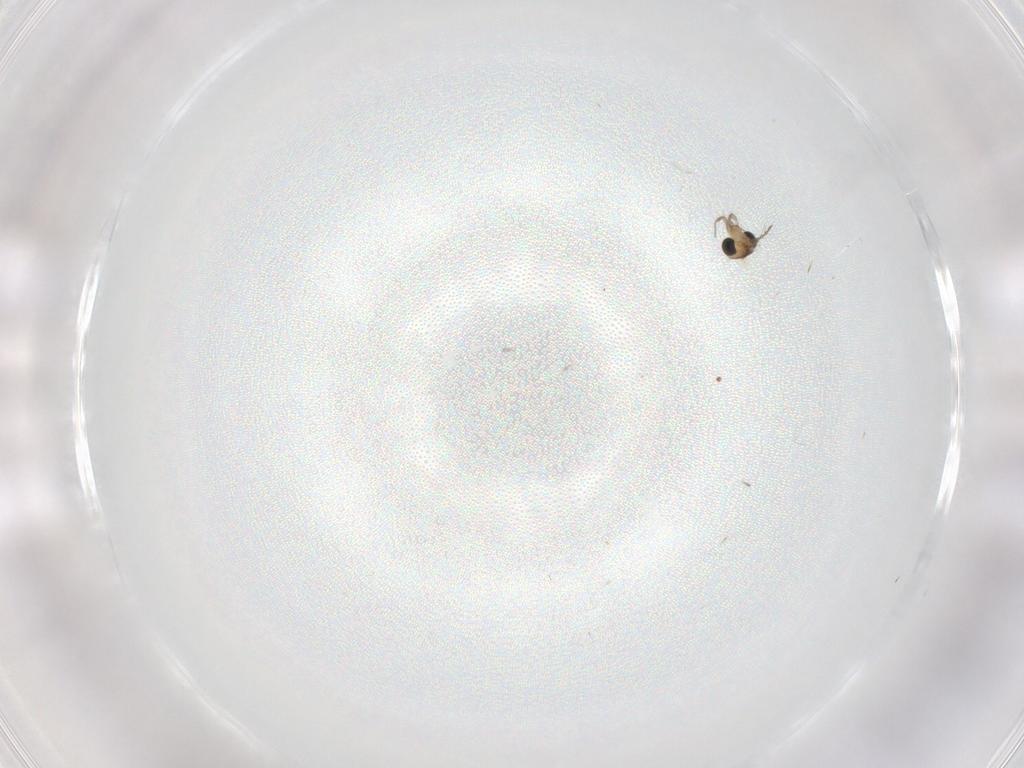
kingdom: Animalia
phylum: Arthropoda
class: Insecta
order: Diptera
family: Chironomidae
